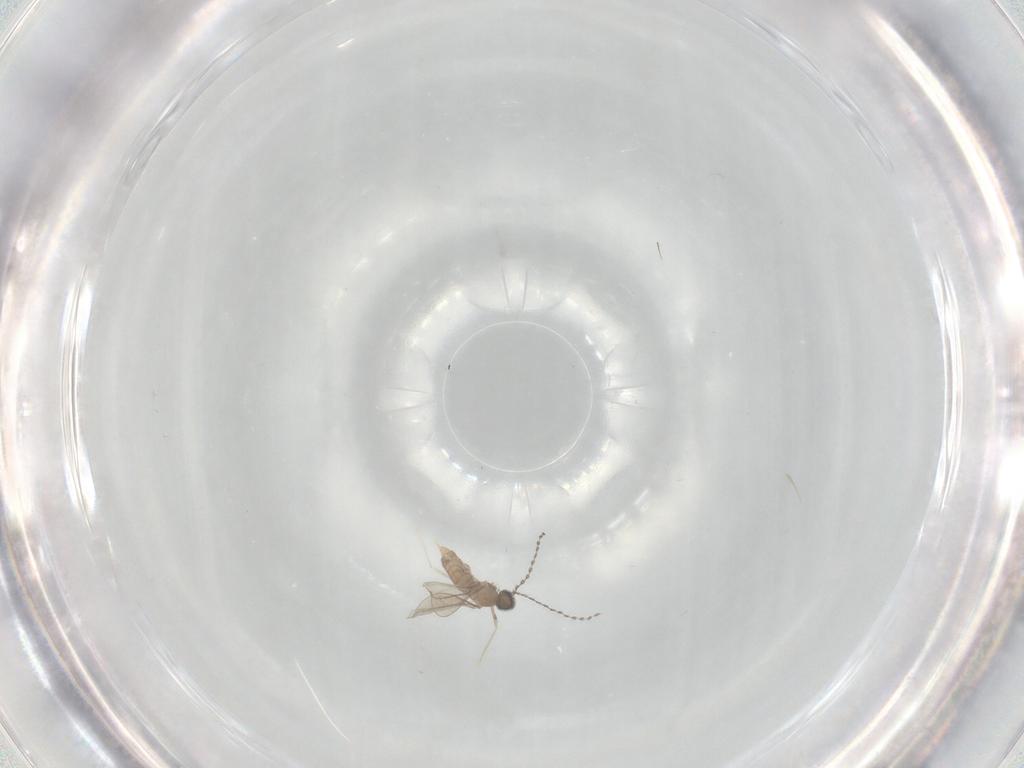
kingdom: Animalia
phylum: Arthropoda
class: Insecta
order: Diptera
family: Cecidomyiidae
